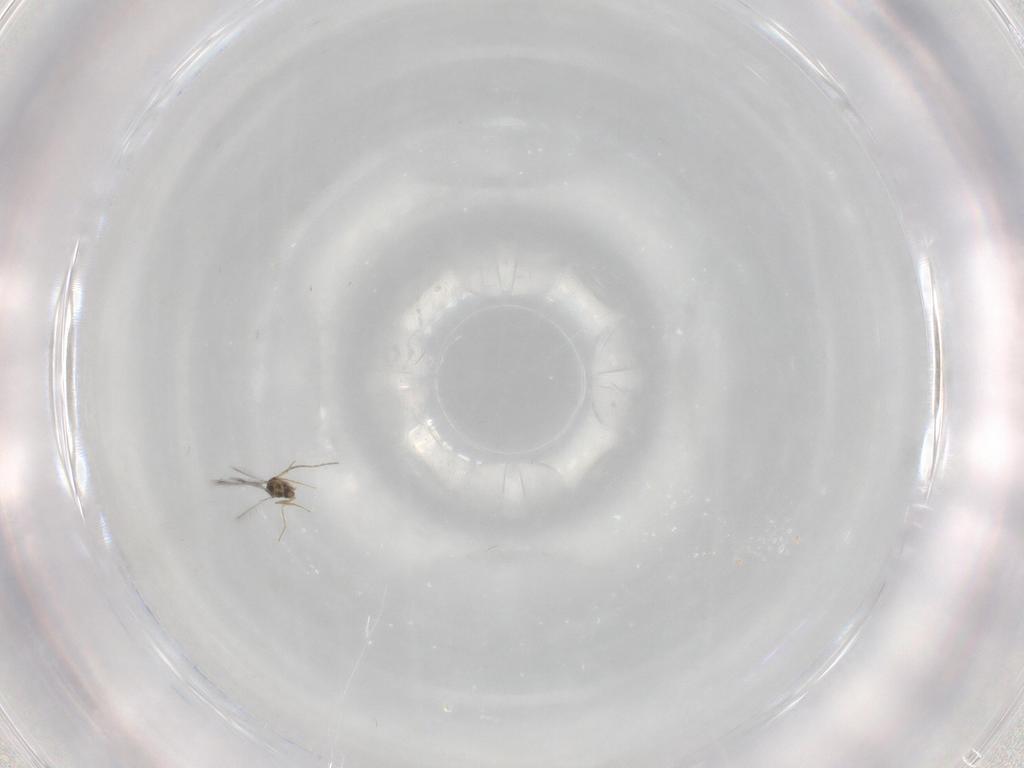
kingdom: Animalia
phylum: Arthropoda
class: Insecta
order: Hymenoptera
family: Mymaridae
